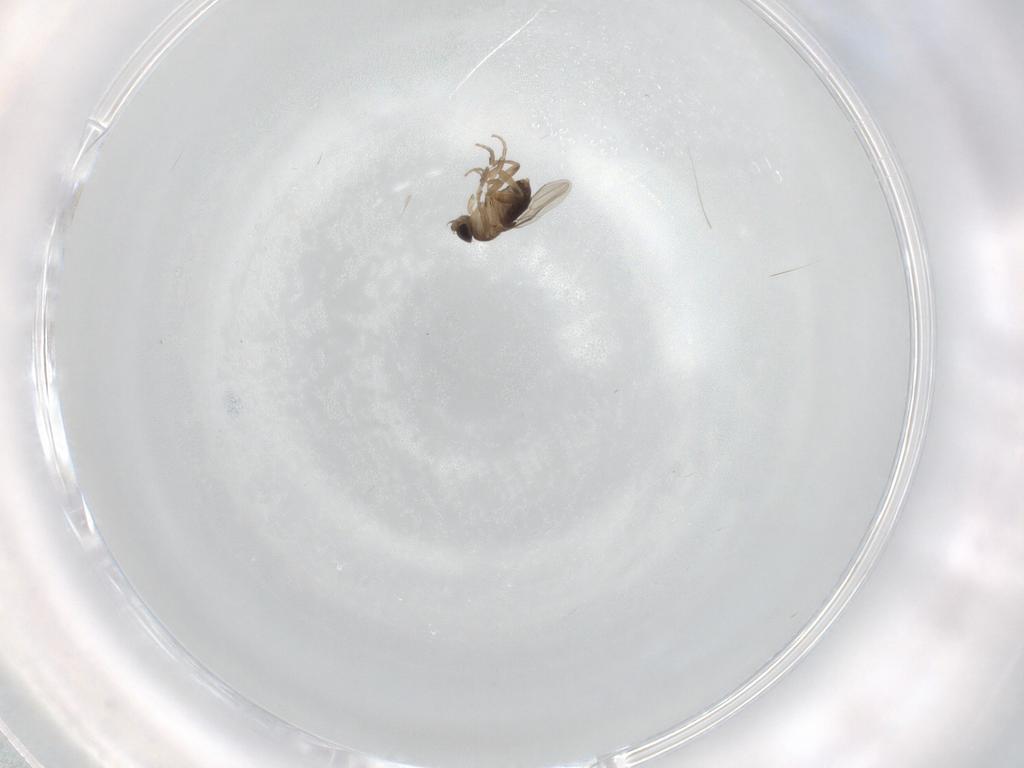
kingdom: Animalia
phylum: Arthropoda
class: Insecta
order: Diptera
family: Phoridae
